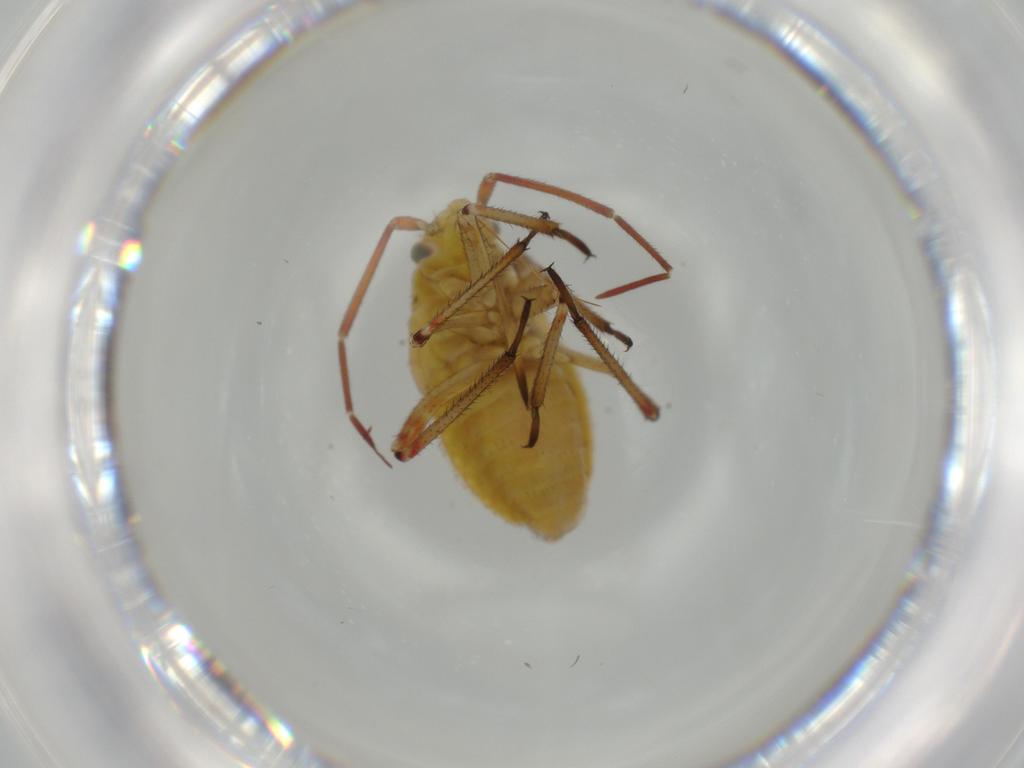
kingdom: Animalia
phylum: Arthropoda
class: Insecta
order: Hemiptera
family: Miridae
